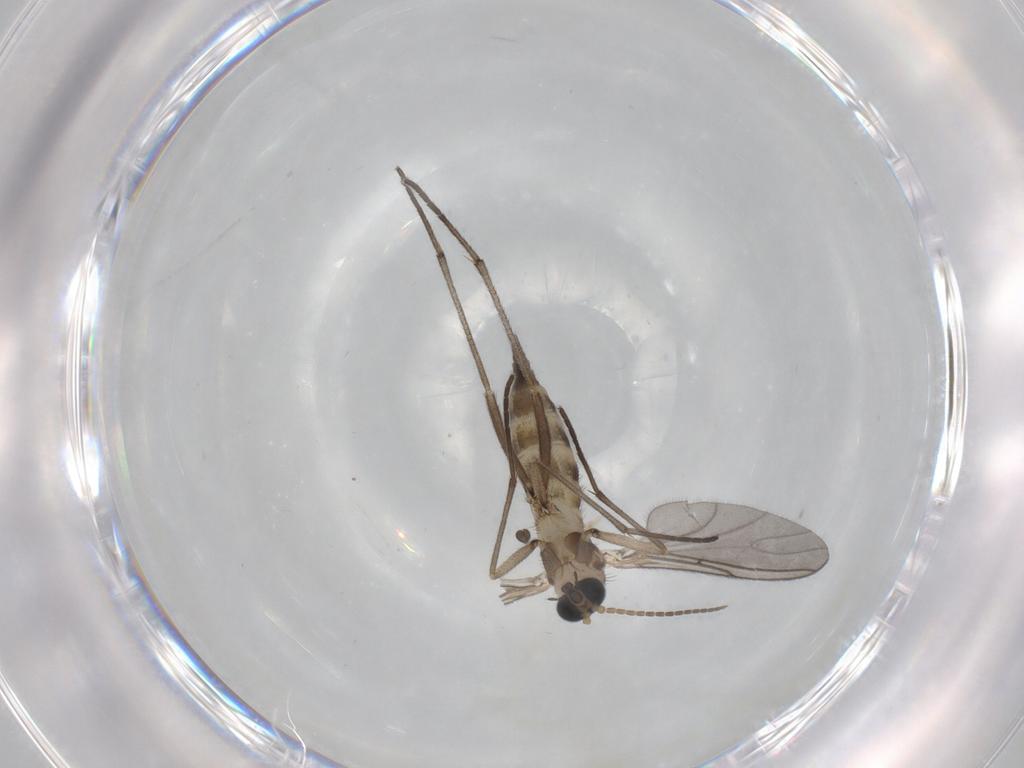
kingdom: Animalia
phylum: Arthropoda
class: Insecta
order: Diptera
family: Sciaridae
